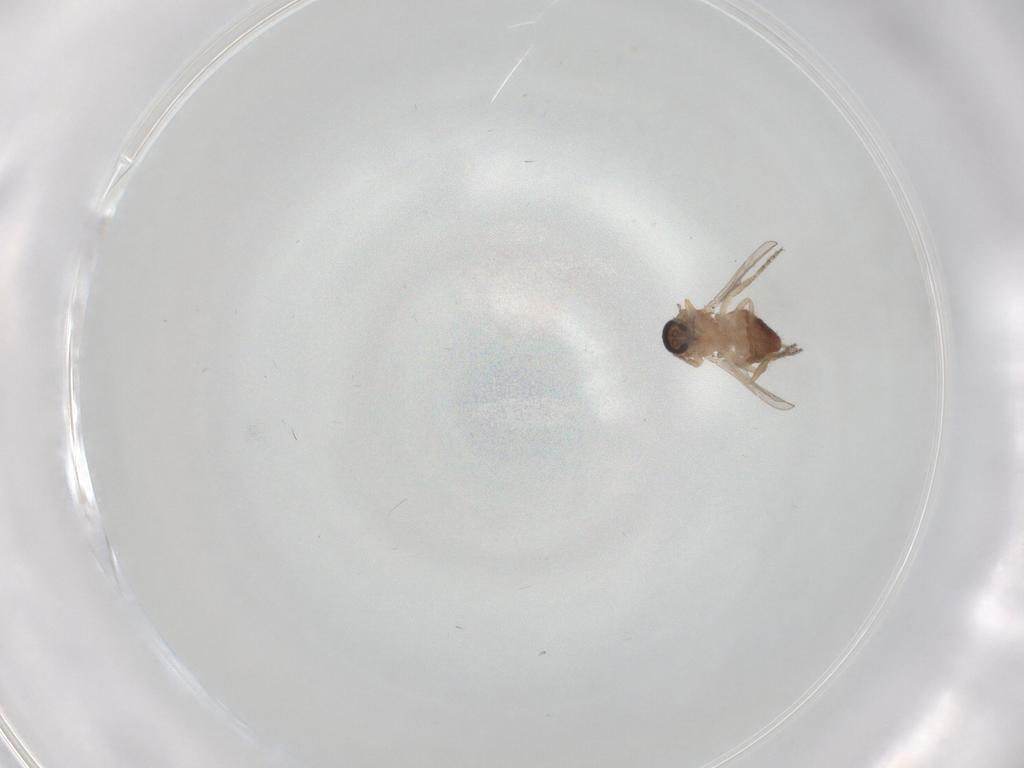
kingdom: Animalia
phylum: Arthropoda
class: Insecta
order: Diptera
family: Ceratopogonidae
